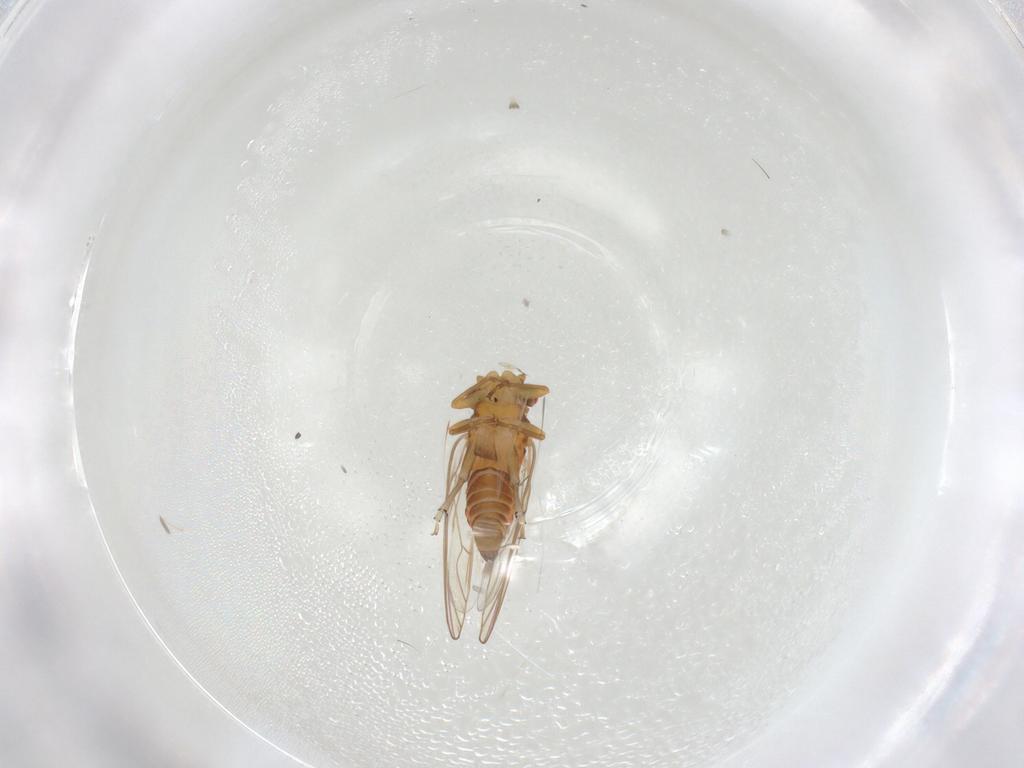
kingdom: Animalia
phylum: Arthropoda
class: Insecta
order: Hemiptera
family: Psyllidae
